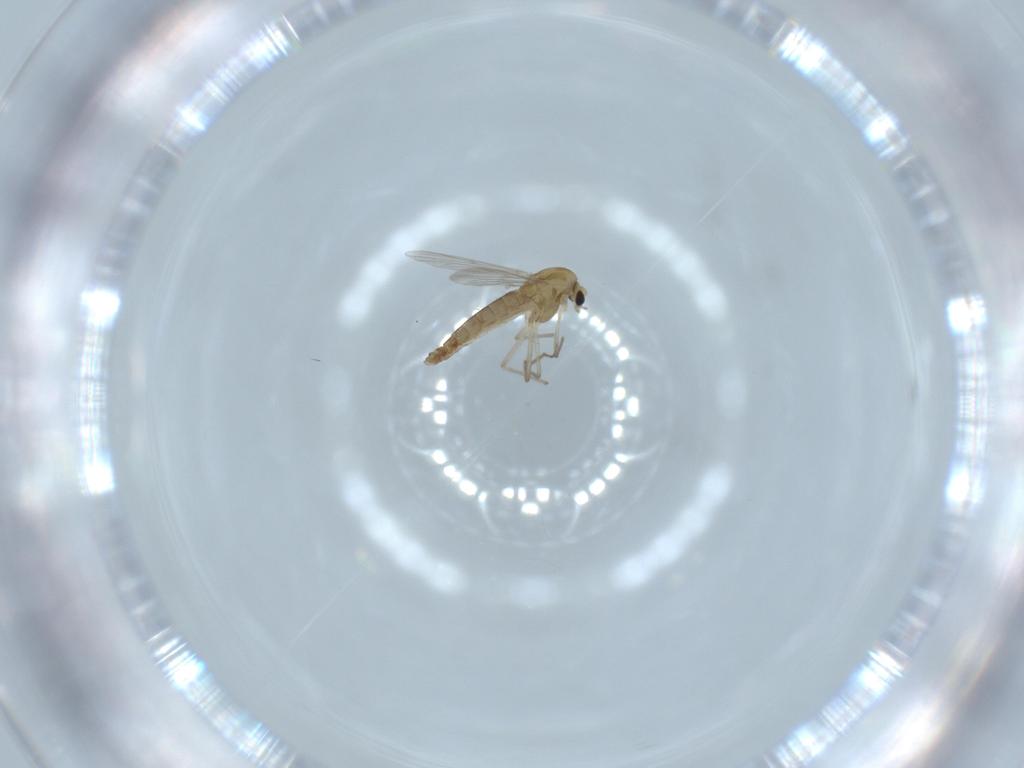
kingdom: Animalia
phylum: Arthropoda
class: Insecta
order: Diptera
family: Chironomidae
